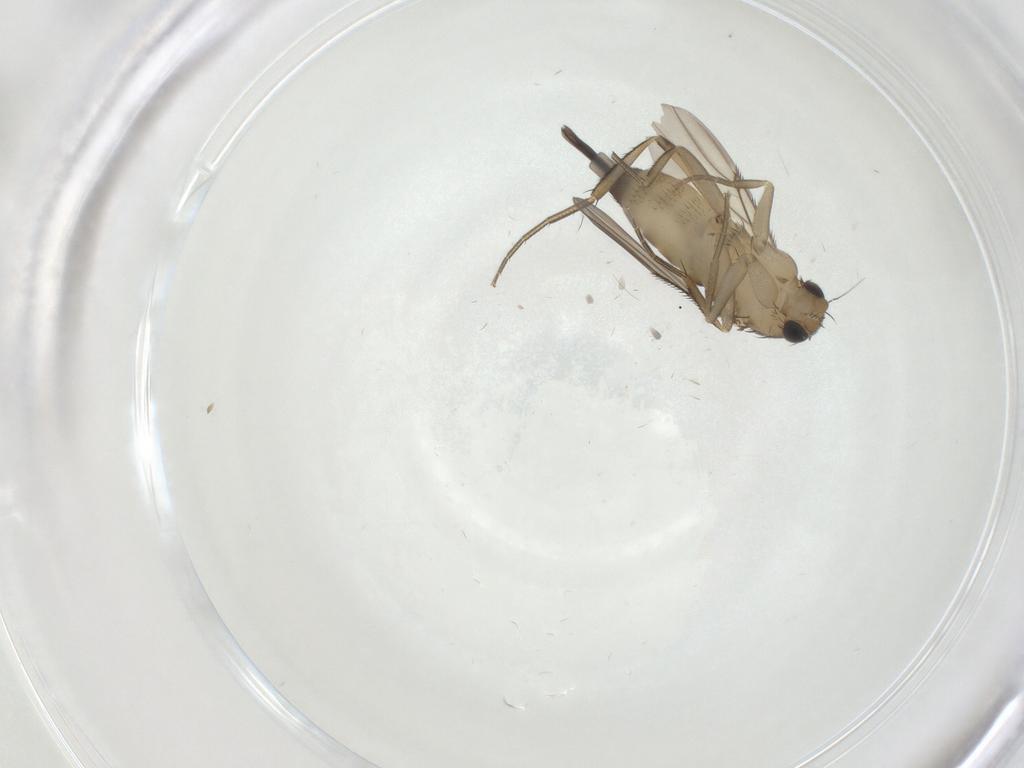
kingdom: Animalia
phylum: Arthropoda
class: Insecta
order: Diptera
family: Phoridae
